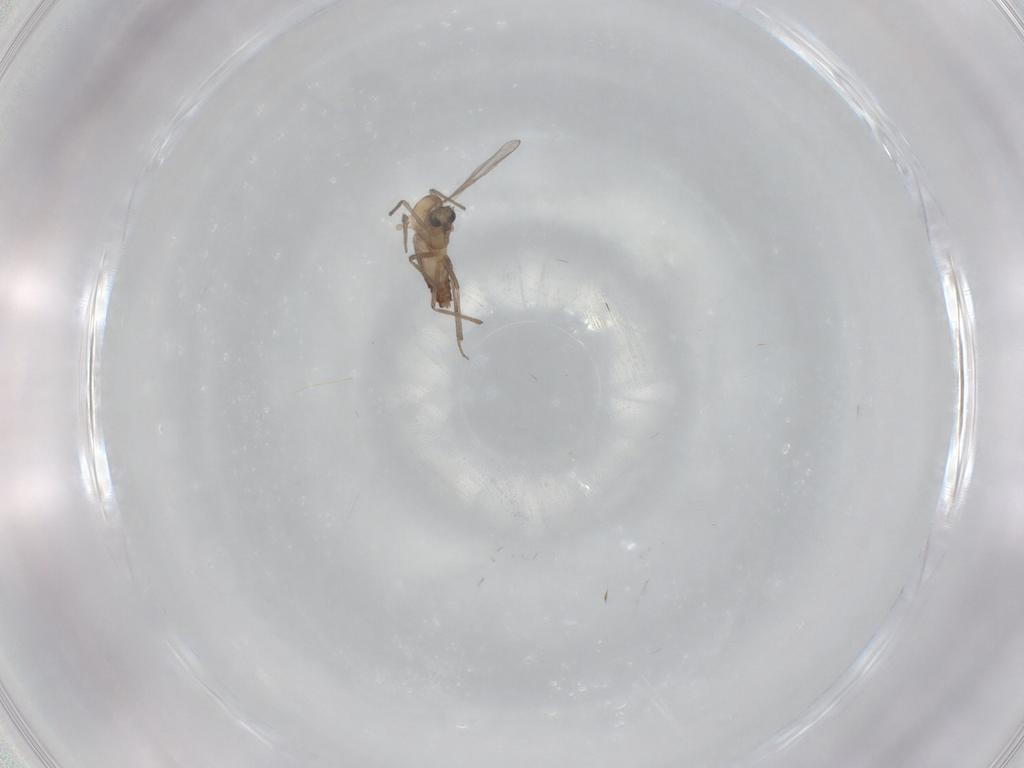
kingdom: Animalia
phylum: Arthropoda
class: Insecta
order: Diptera
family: Chironomidae
